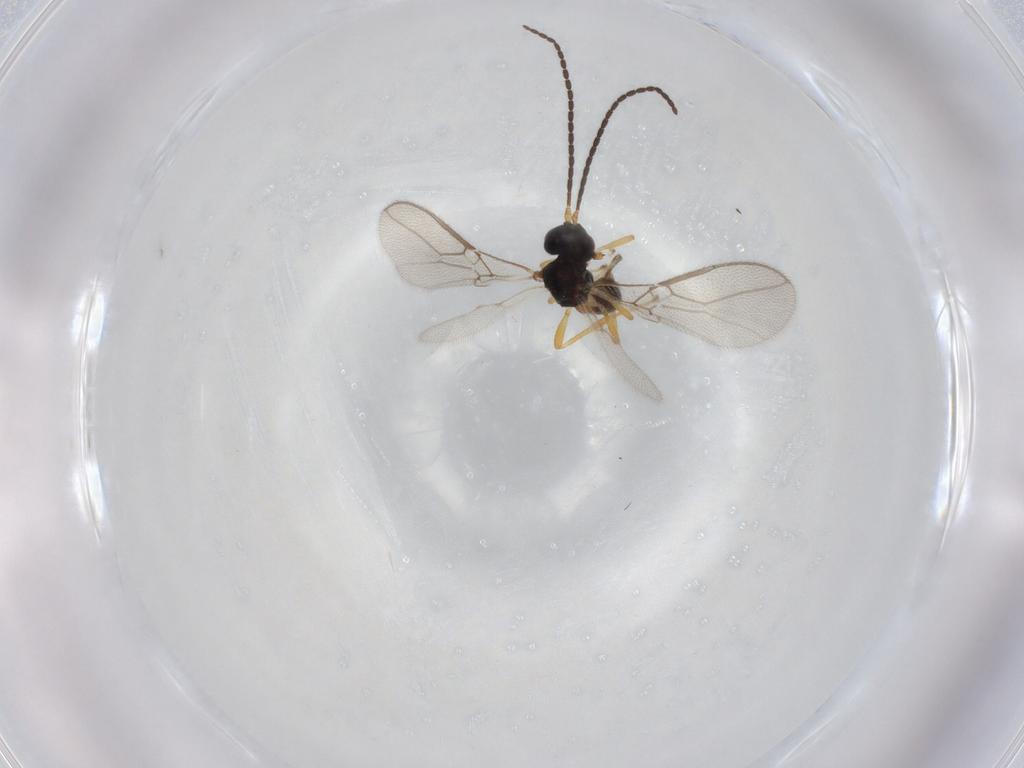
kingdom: Animalia
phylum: Arthropoda
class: Insecta
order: Hymenoptera
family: Braconidae
